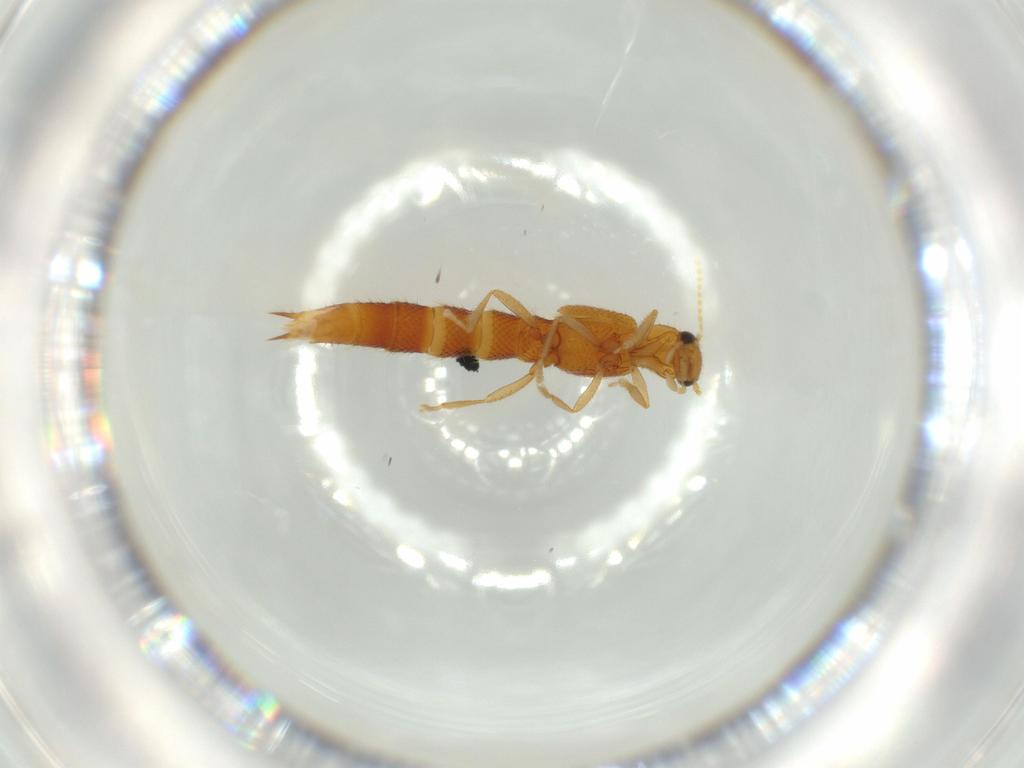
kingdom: Animalia
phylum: Arthropoda
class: Insecta
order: Coleoptera
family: Staphylinidae
